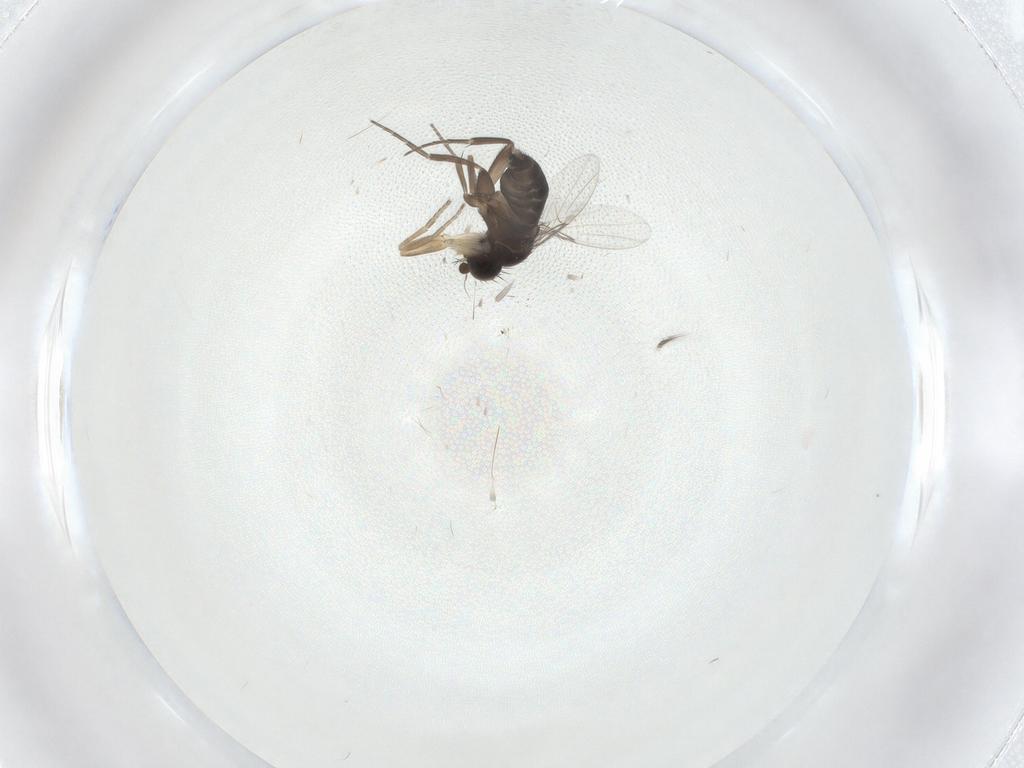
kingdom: Animalia
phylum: Arthropoda
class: Insecta
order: Diptera
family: Phoridae
